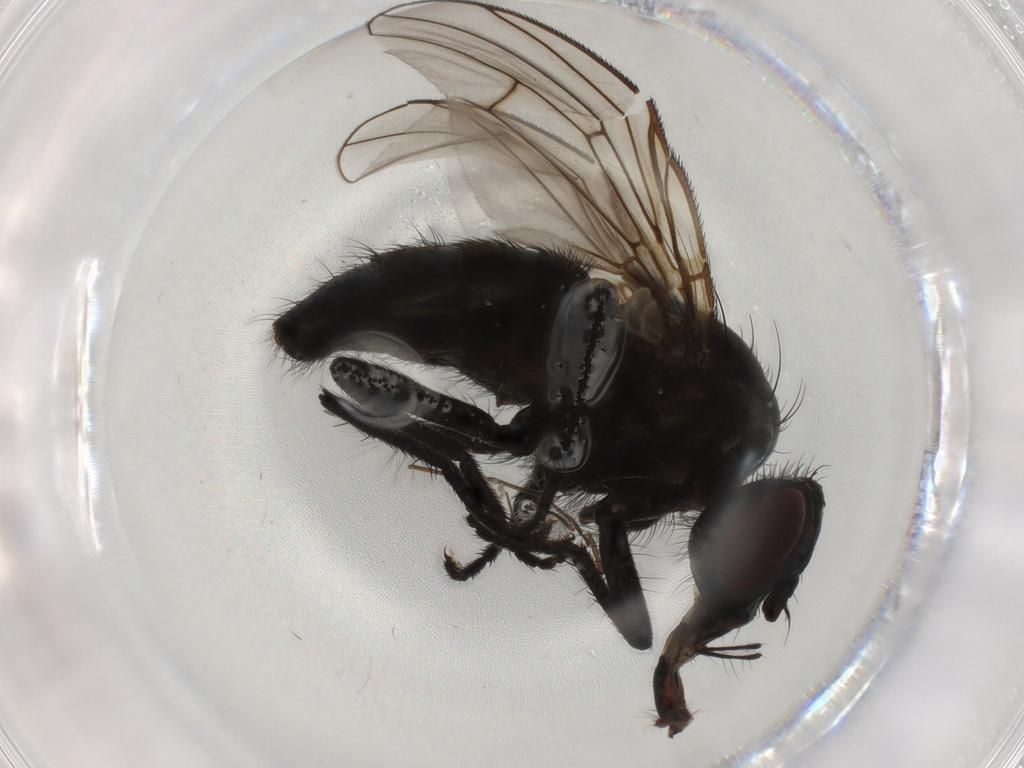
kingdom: Animalia
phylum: Arthropoda
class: Insecta
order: Diptera
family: Muscidae
